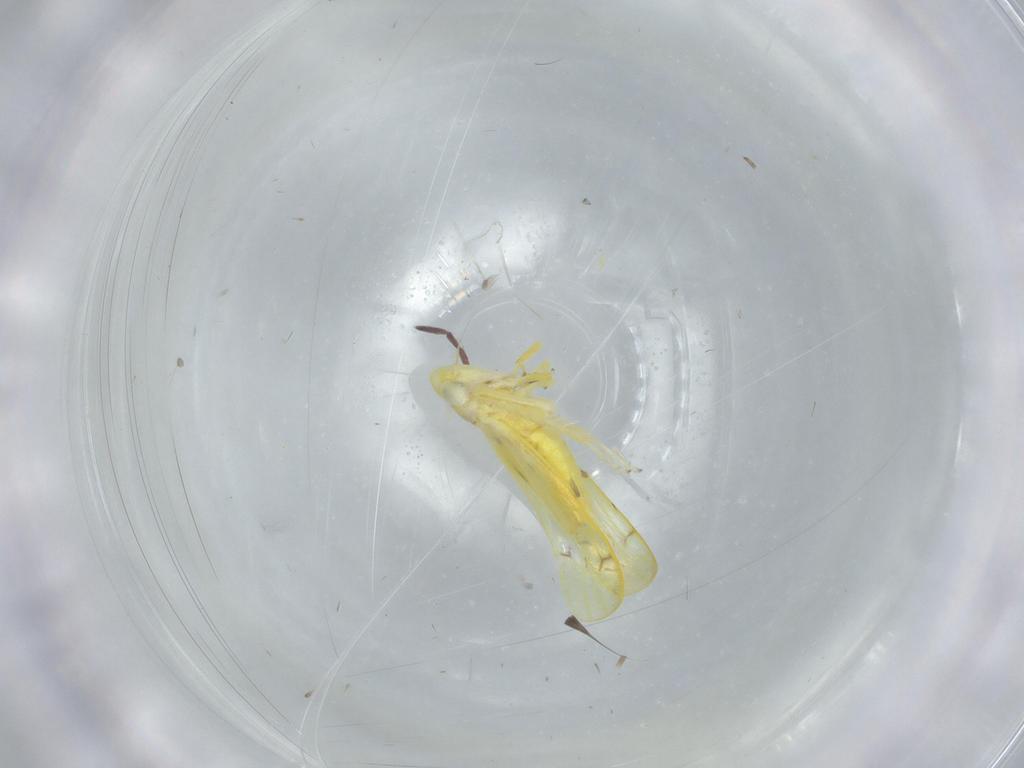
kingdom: Animalia
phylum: Arthropoda
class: Insecta
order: Hemiptera
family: Cicadellidae
